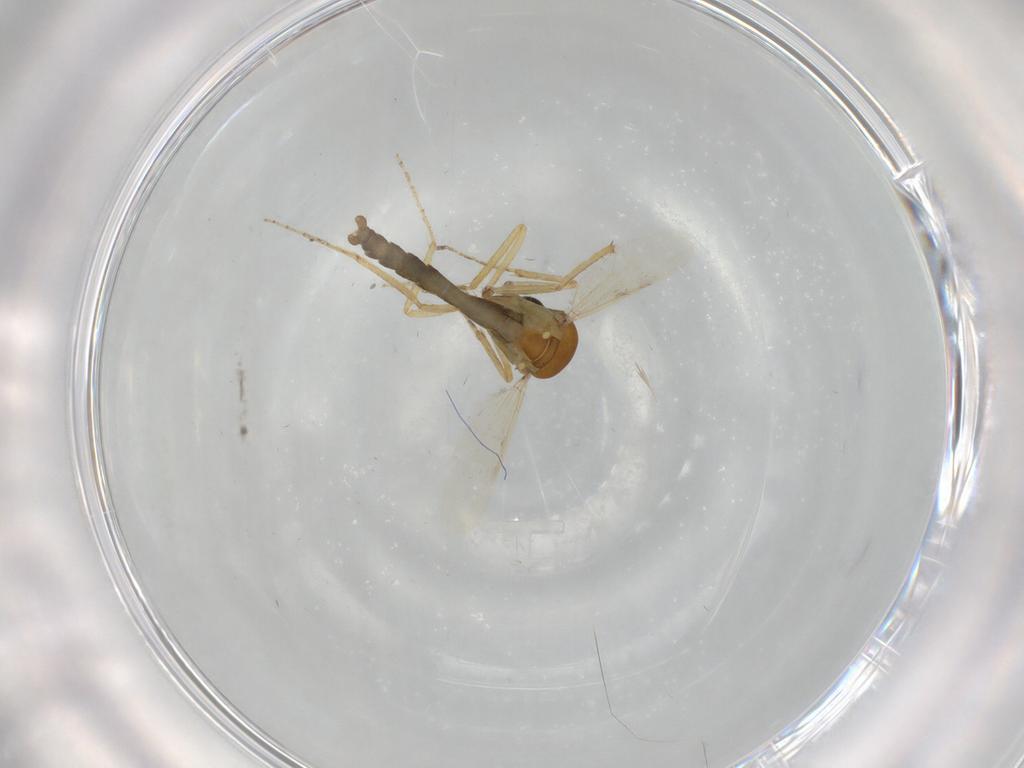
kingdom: Animalia
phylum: Arthropoda
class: Insecta
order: Diptera
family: Ceratopogonidae
